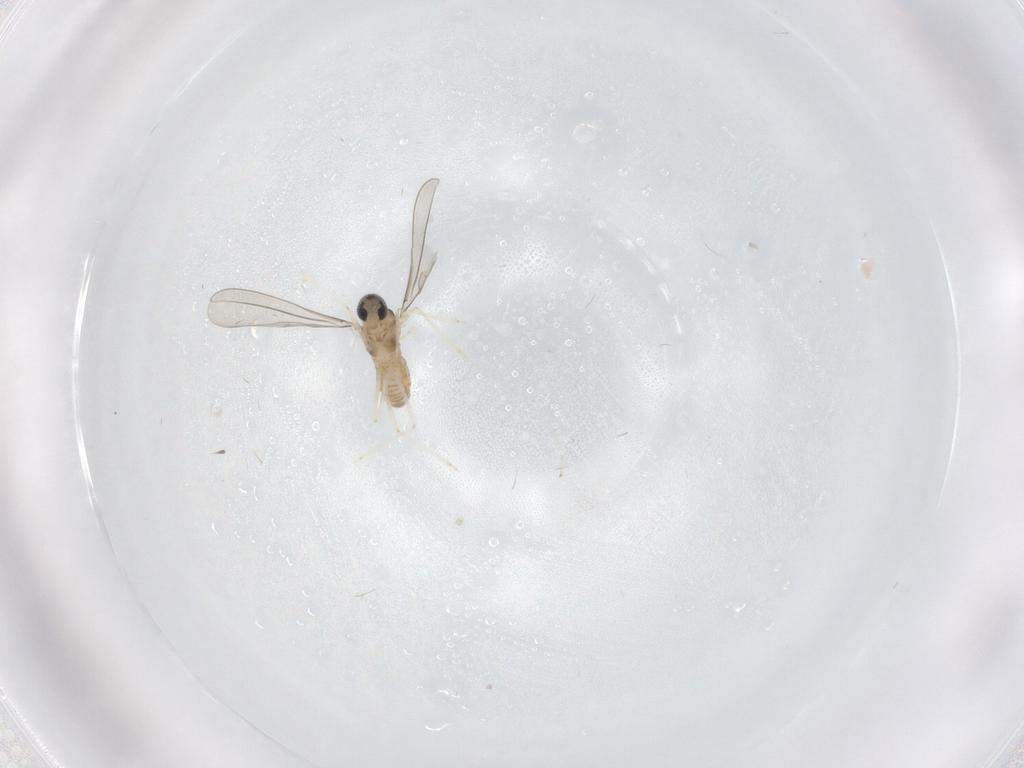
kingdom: Animalia
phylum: Arthropoda
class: Insecta
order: Diptera
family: Cecidomyiidae
